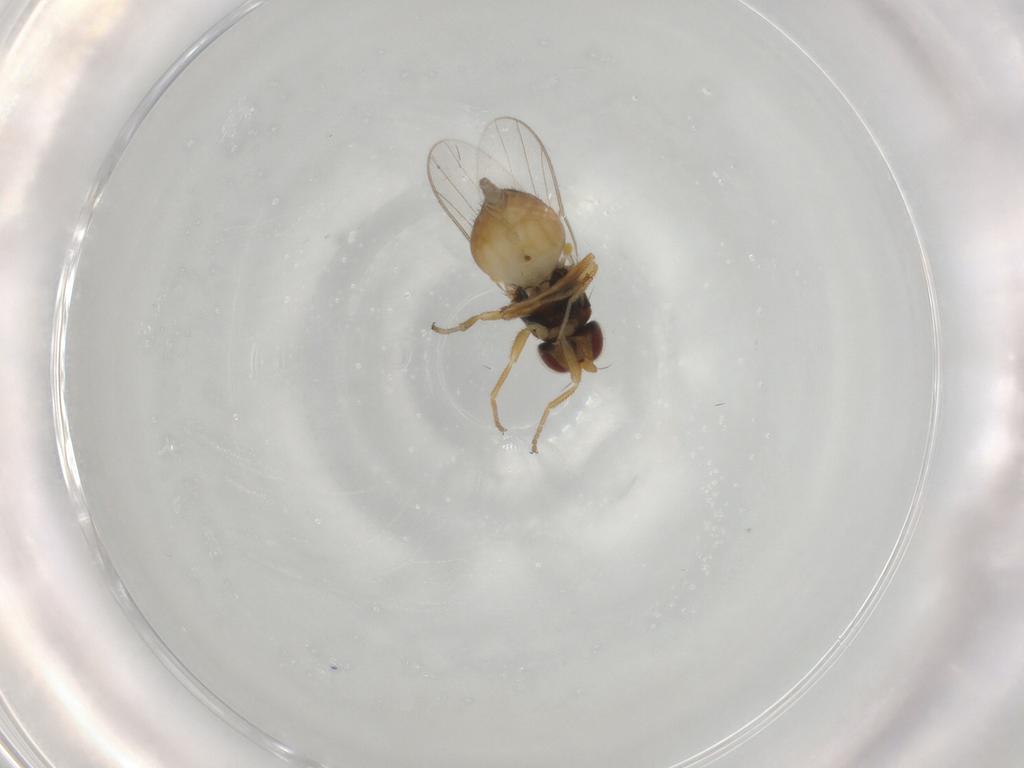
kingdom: Animalia
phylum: Arthropoda
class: Insecta
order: Diptera
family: Chloropidae
